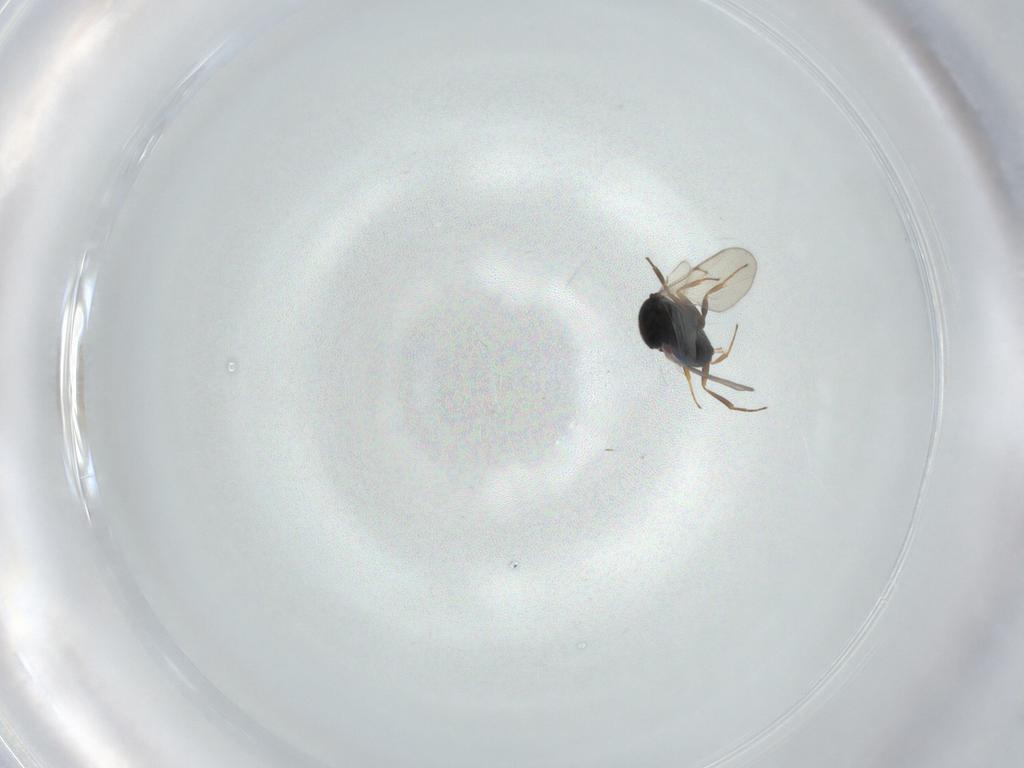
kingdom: Animalia
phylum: Arthropoda
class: Insecta
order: Hymenoptera
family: Scelionidae
